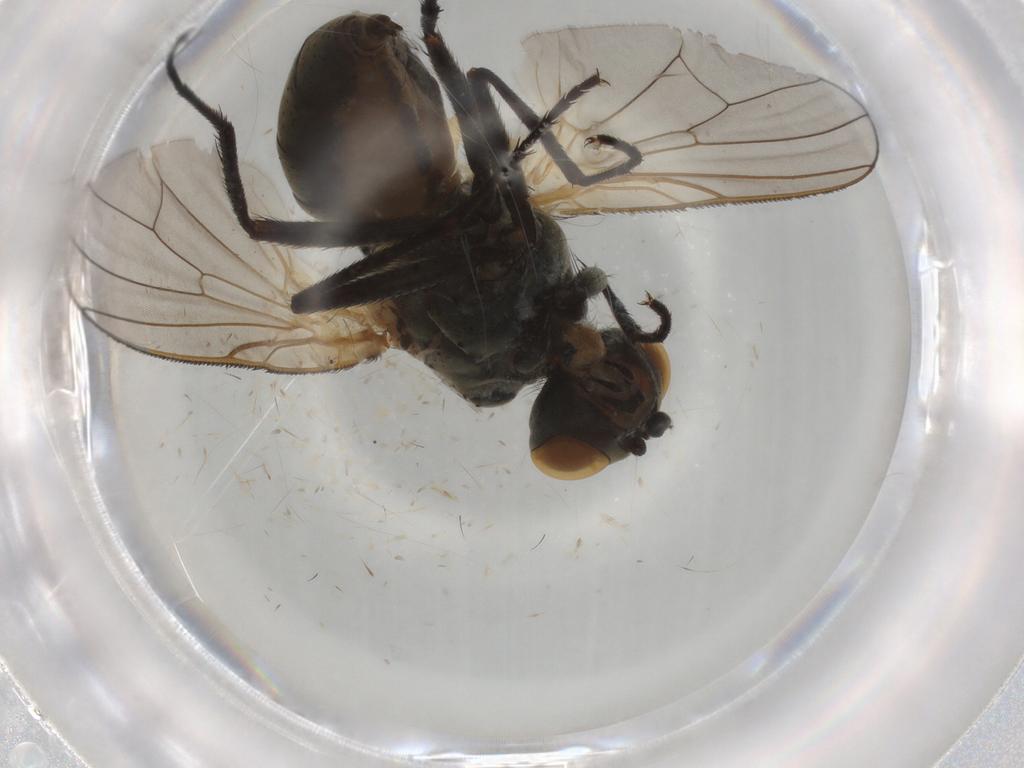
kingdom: Animalia
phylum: Arthropoda
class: Insecta
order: Diptera
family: Anthomyiidae
